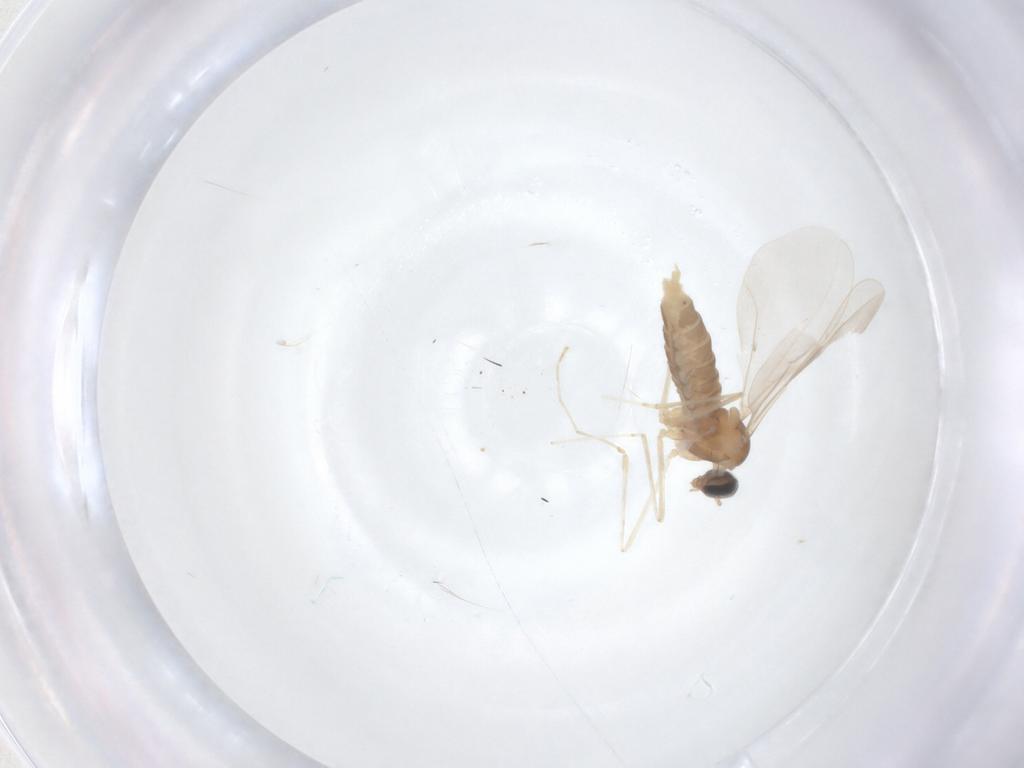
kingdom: Animalia
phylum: Arthropoda
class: Insecta
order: Diptera
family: Cecidomyiidae
